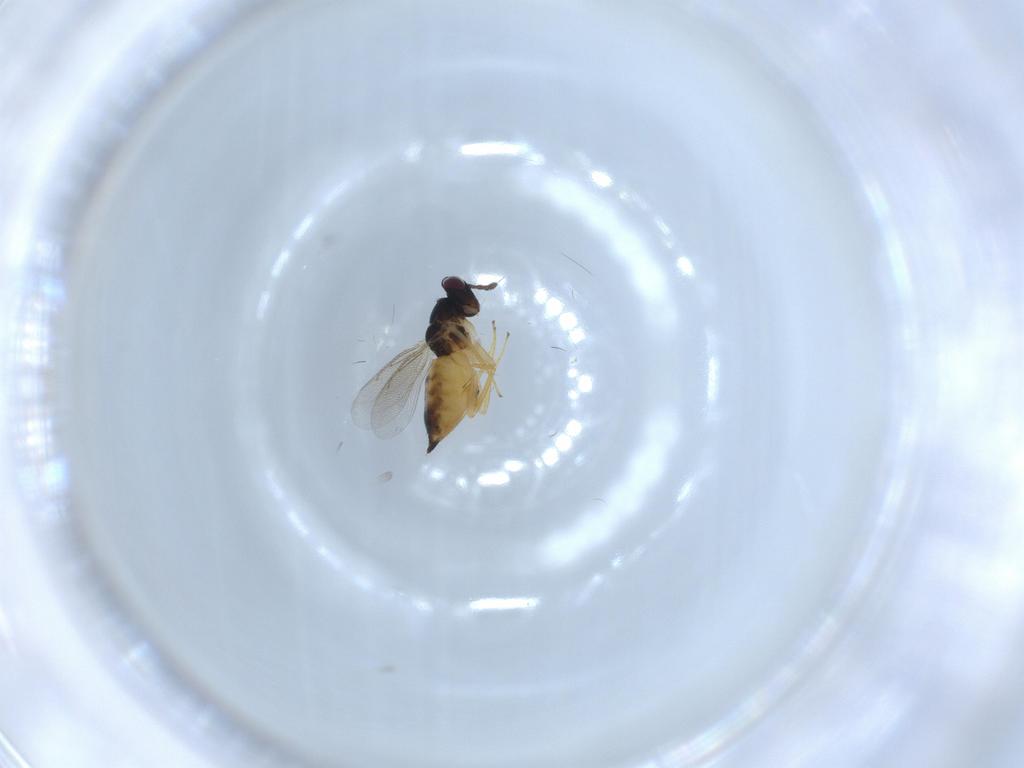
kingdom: Animalia
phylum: Arthropoda
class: Insecta
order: Hymenoptera
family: Eulophidae
